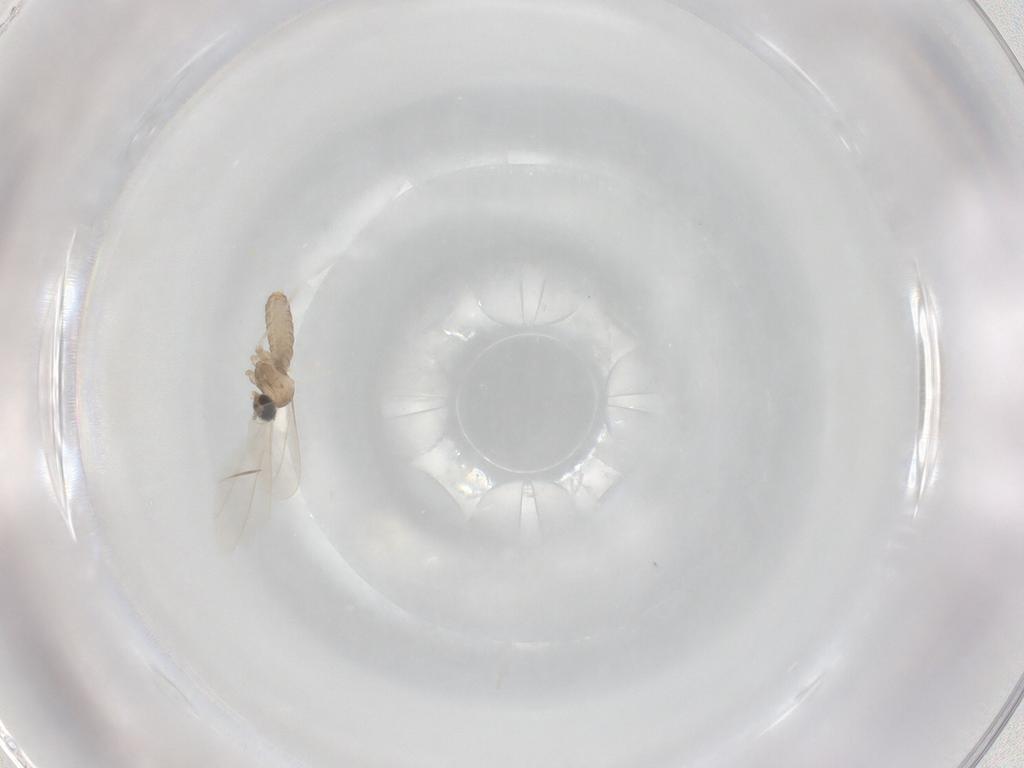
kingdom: Animalia
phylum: Arthropoda
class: Insecta
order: Diptera
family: Cecidomyiidae
